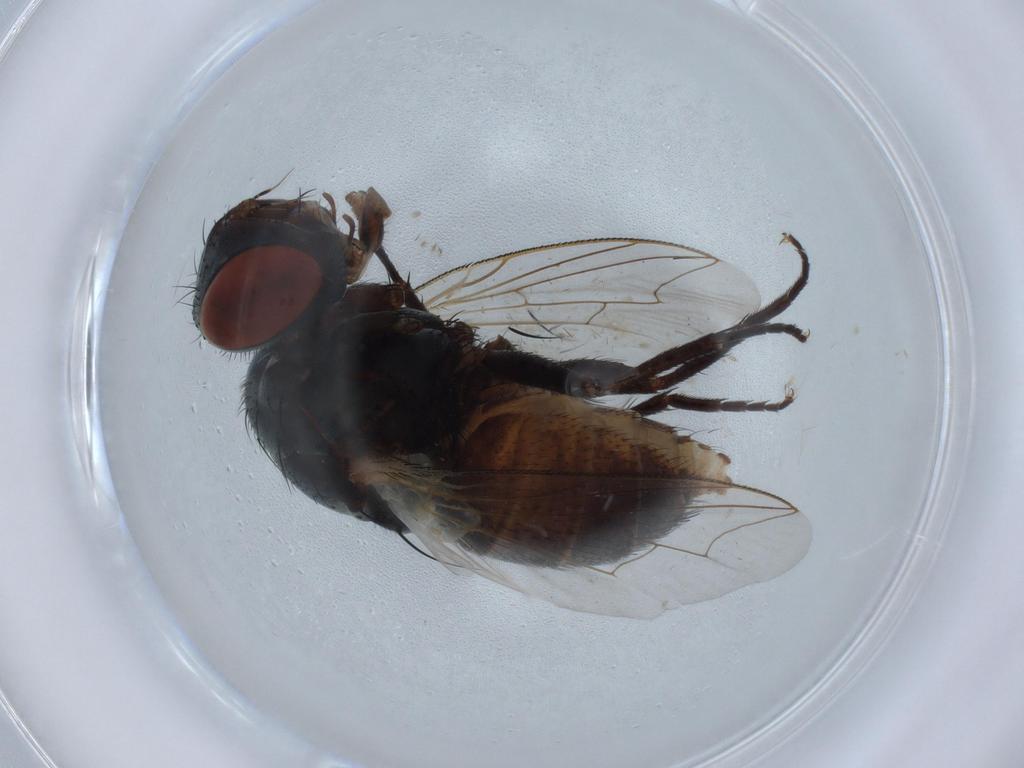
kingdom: Animalia
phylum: Arthropoda
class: Insecta
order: Diptera
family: Sarcophagidae
